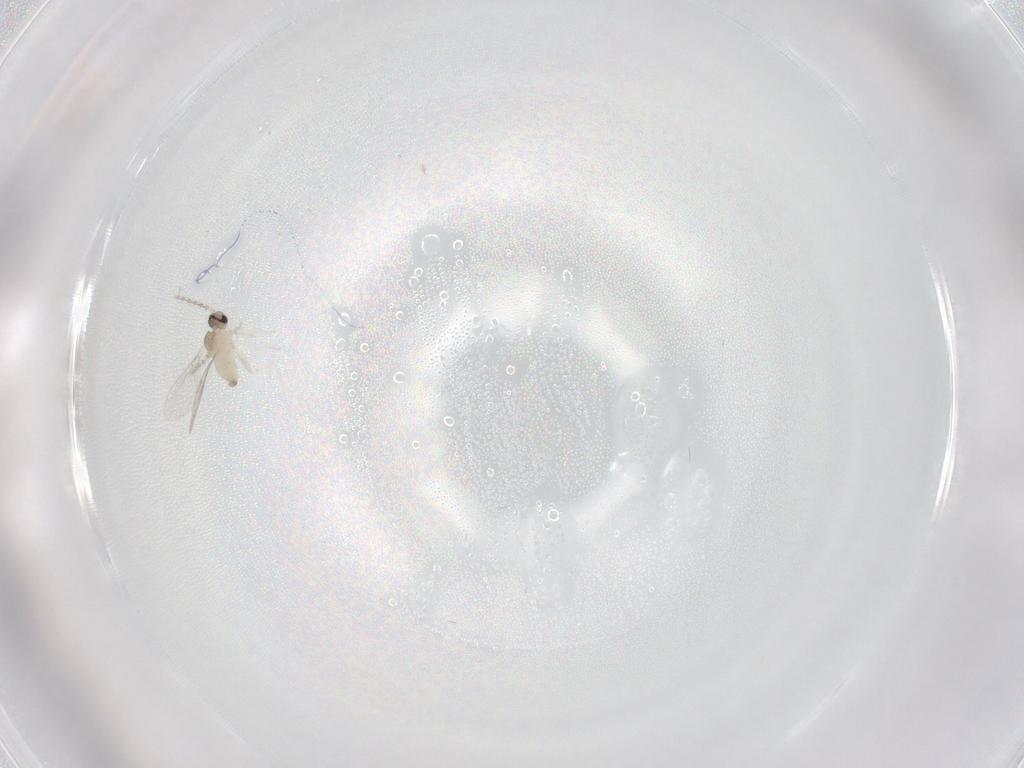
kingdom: Animalia
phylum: Arthropoda
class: Insecta
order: Diptera
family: Cecidomyiidae
